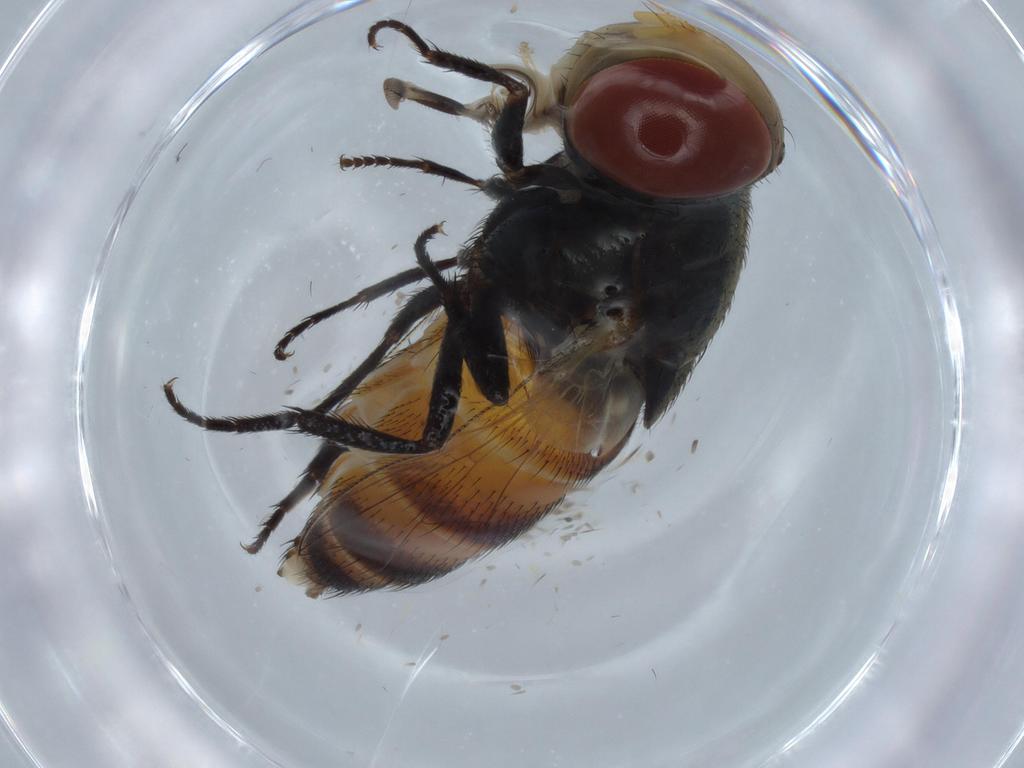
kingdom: Animalia
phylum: Arthropoda
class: Insecta
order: Diptera
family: Sarcophagidae
